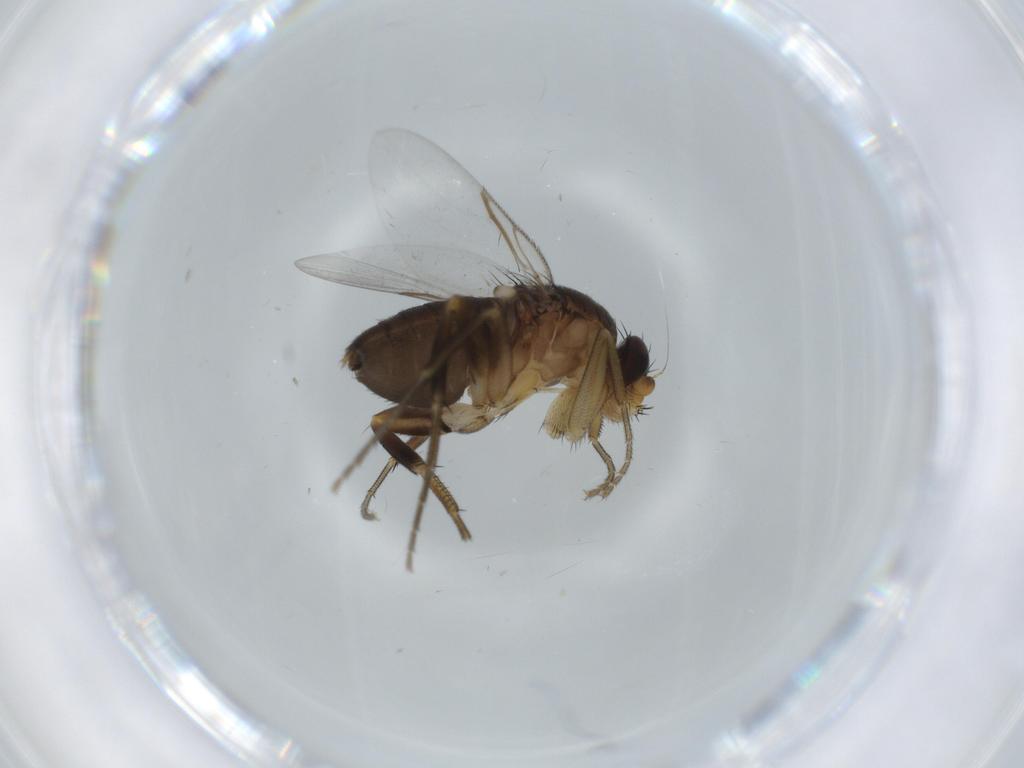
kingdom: Animalia
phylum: Arthropoda
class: Insecta
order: Diptera
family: Phoridae
